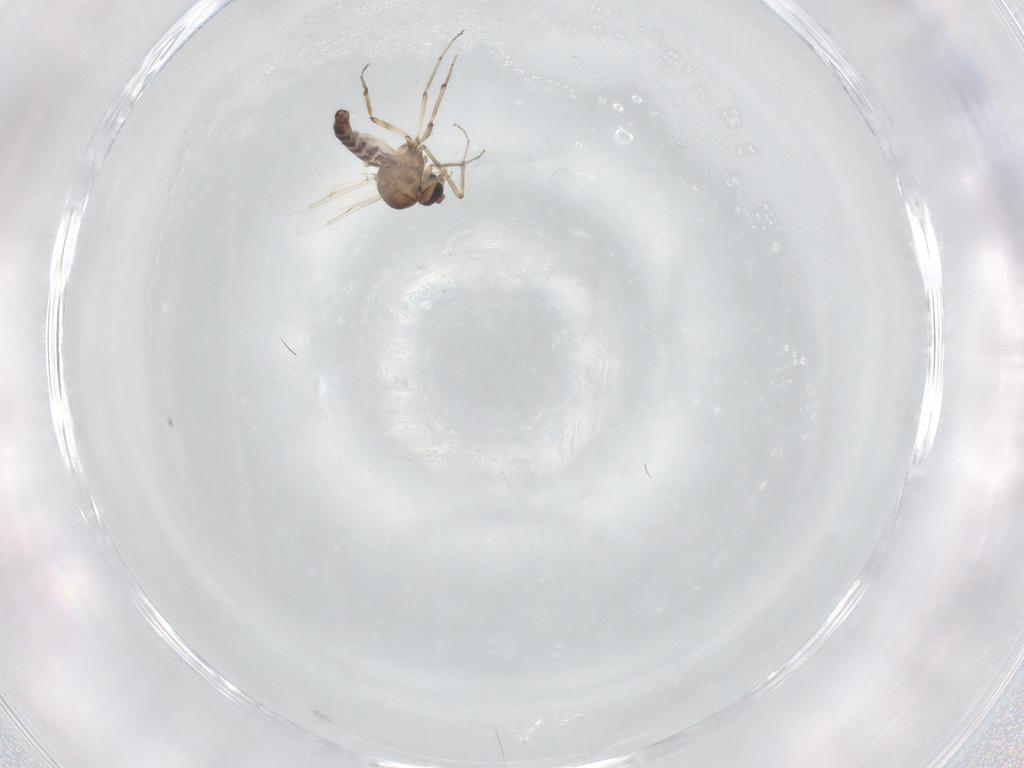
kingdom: Animalia
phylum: Arthropoda
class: Insecta
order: Diptera
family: Ceratopogonidae
